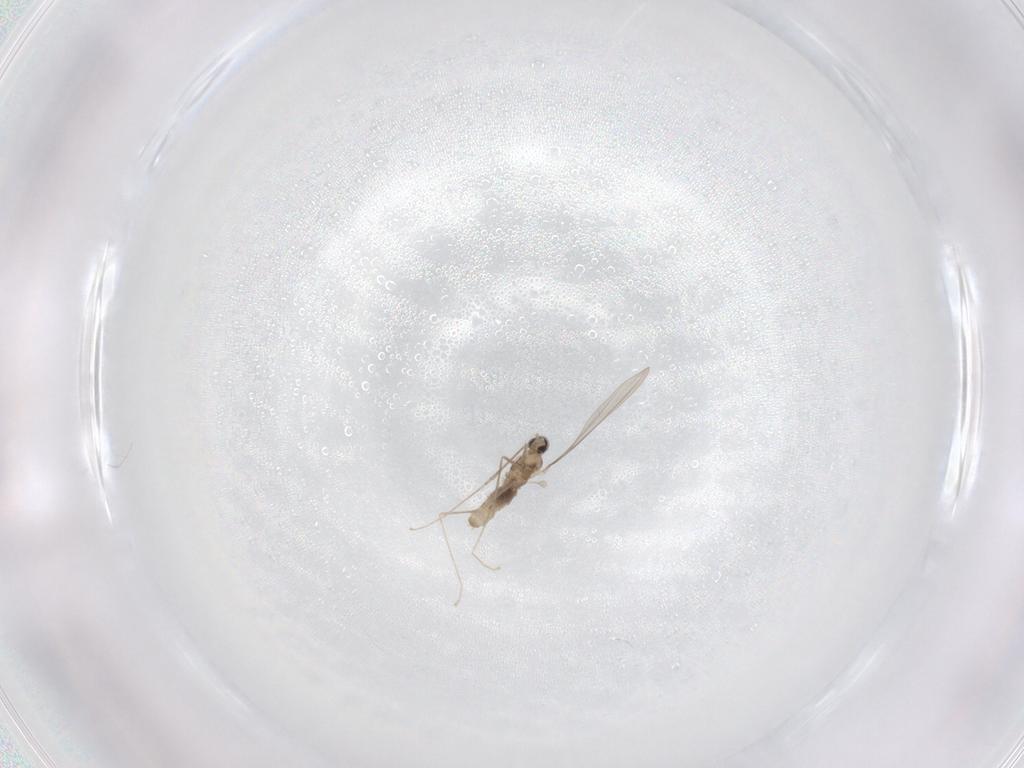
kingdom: Animalia
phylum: Arthropoda
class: Insecta
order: Diptera
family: Cecidomyiidae
